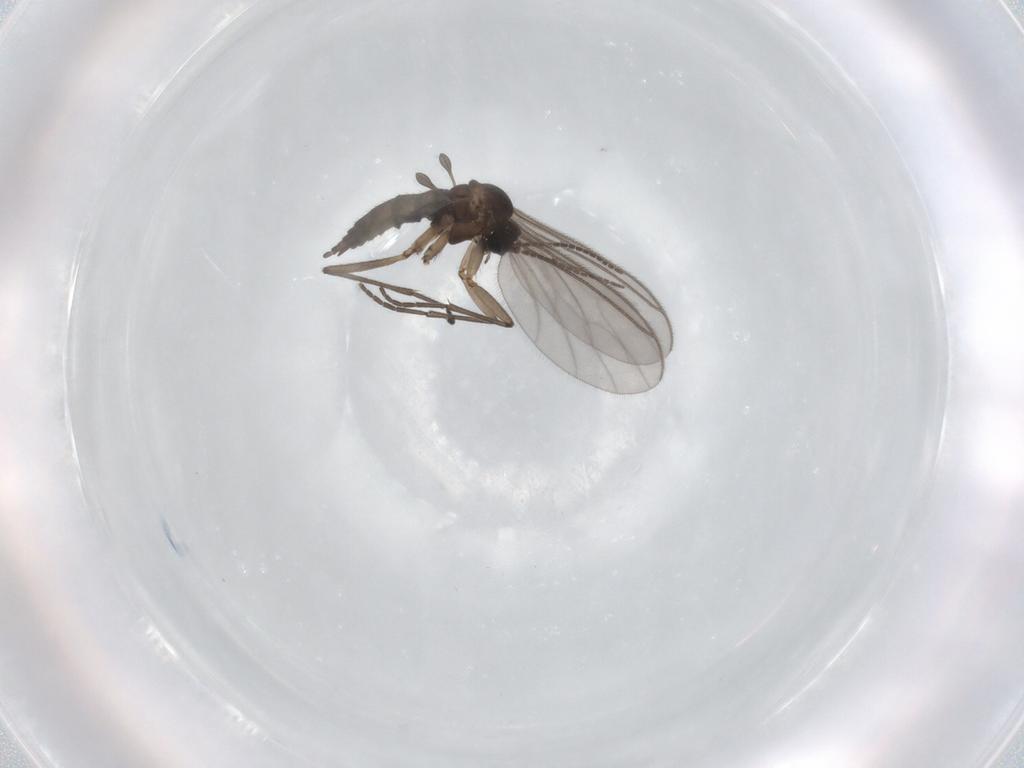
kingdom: Animalia
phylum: Arthropoda
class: Insecta
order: Diptera
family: Sciaridae
